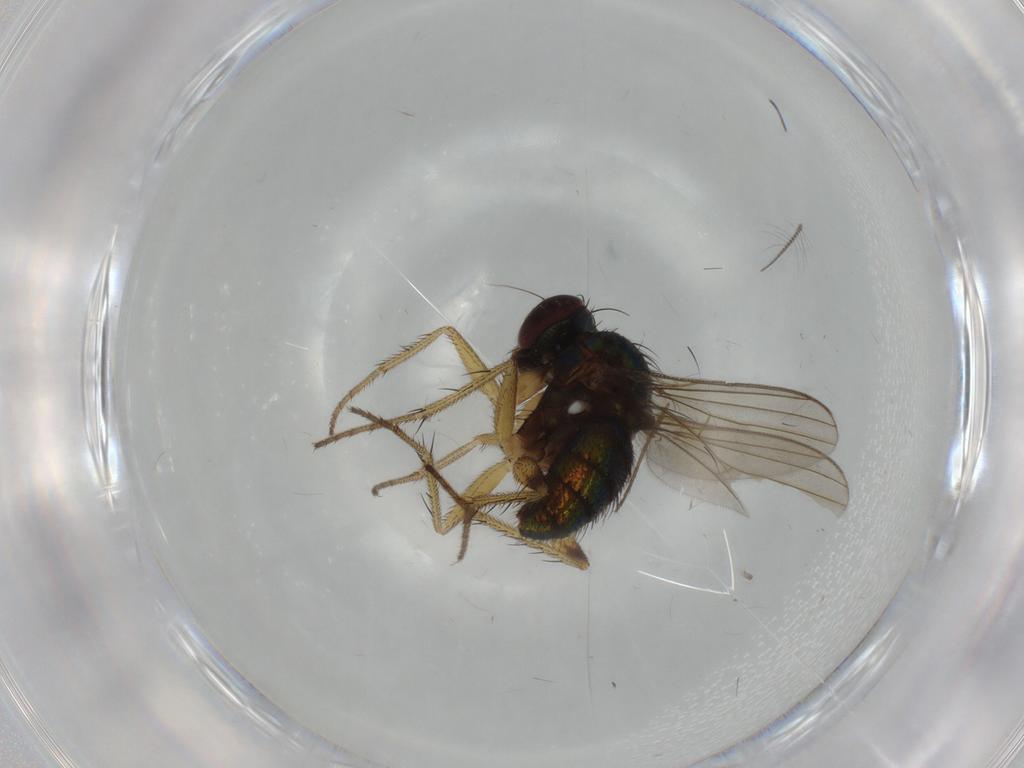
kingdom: Animalia
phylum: Arthropoda
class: Insecta
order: Diptera
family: Dolichopodidae
